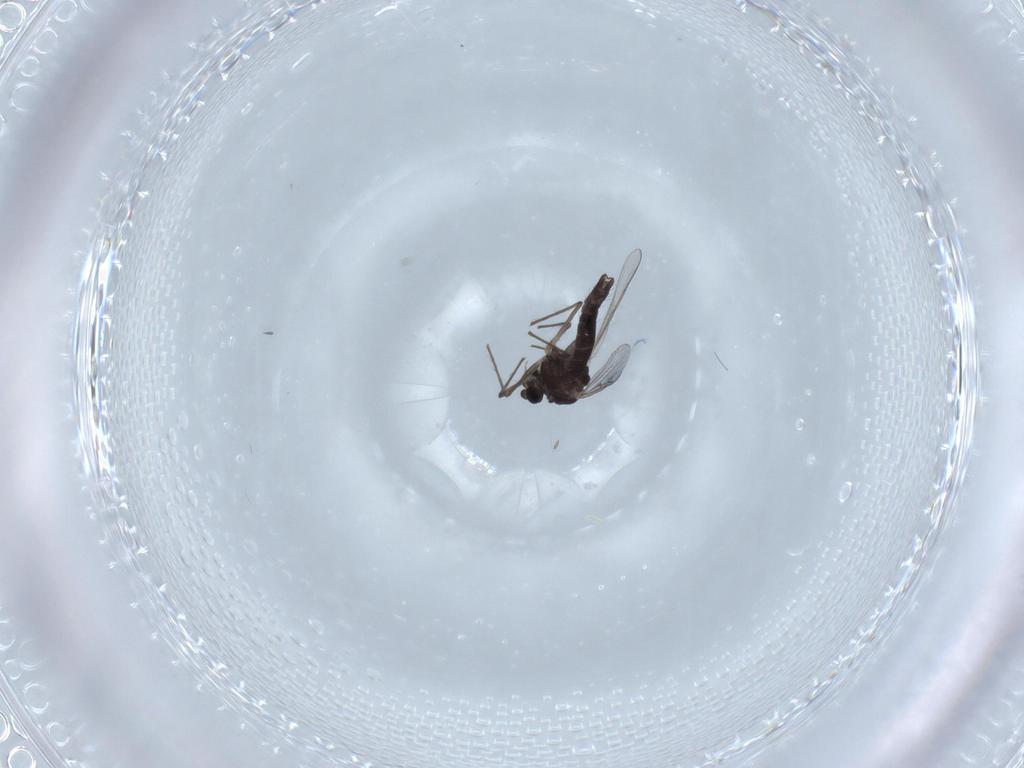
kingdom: Animalia
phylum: Arthropoda
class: Insecta
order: Diptera
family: Chironomidae
